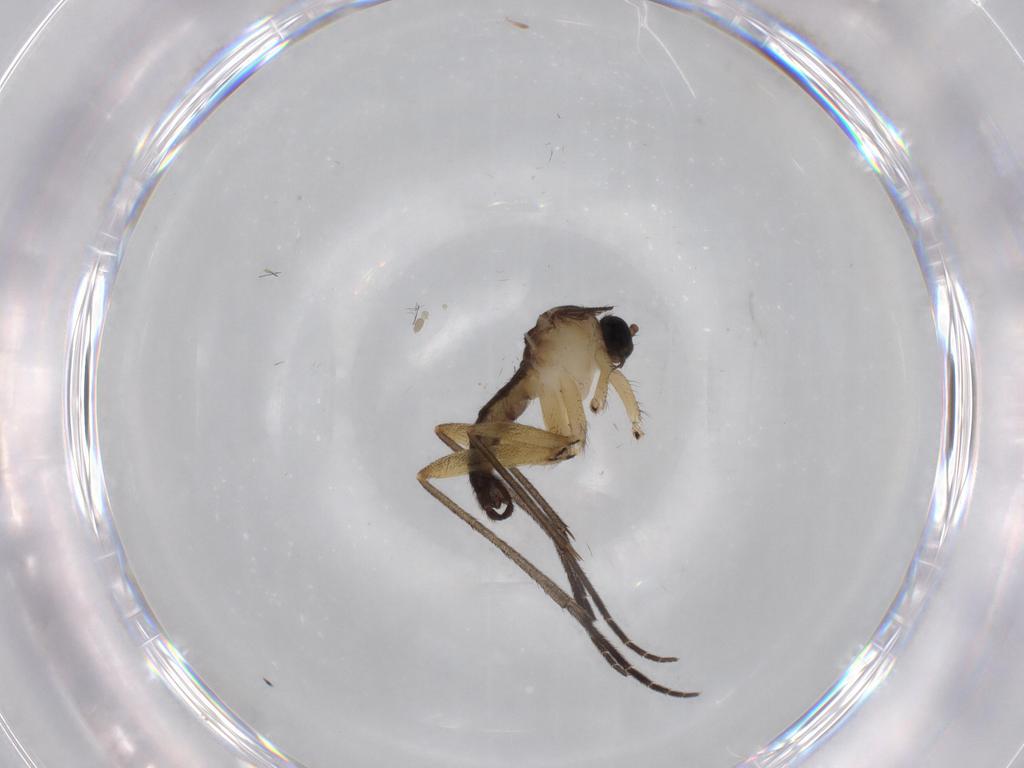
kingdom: Animalia
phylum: Arthropoda
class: Insecta
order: Diptera
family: Sciaridae
